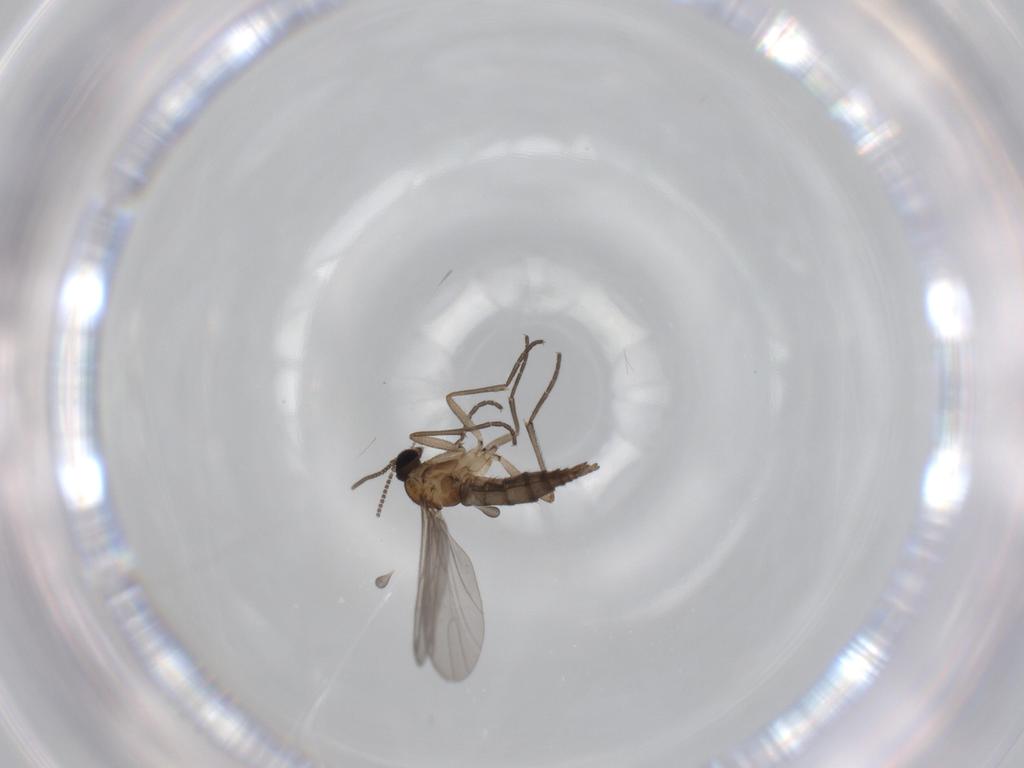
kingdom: Animalia
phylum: Arthropoda
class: Insecta
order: Diptera
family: Sciaridae
